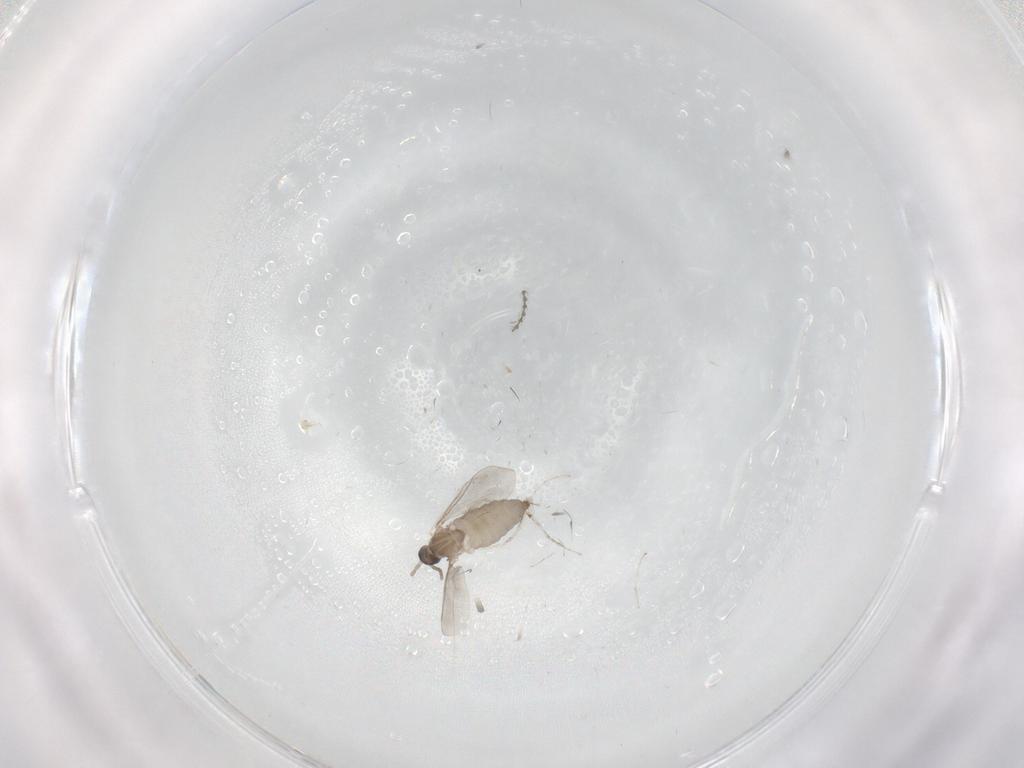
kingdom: Animalia
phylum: Arthropoda
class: Insecta
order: Diptera
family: Cecidomyiidae
